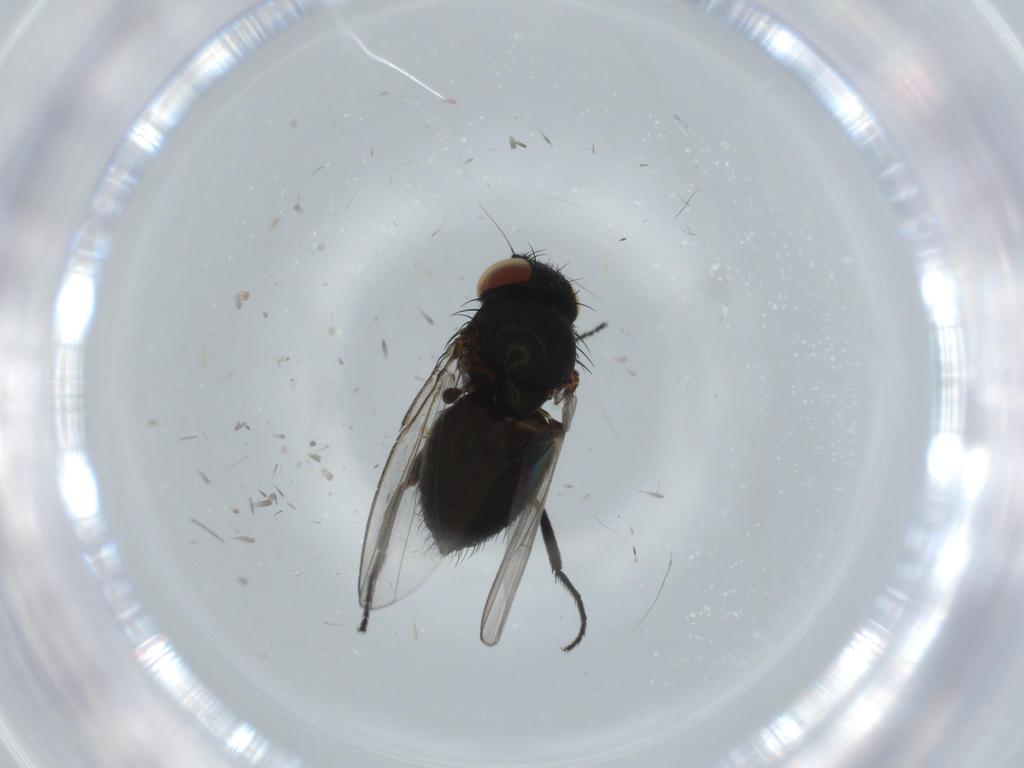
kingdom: Animalia
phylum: Arthropoda
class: Insecta
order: Diptera
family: Milichiidae
